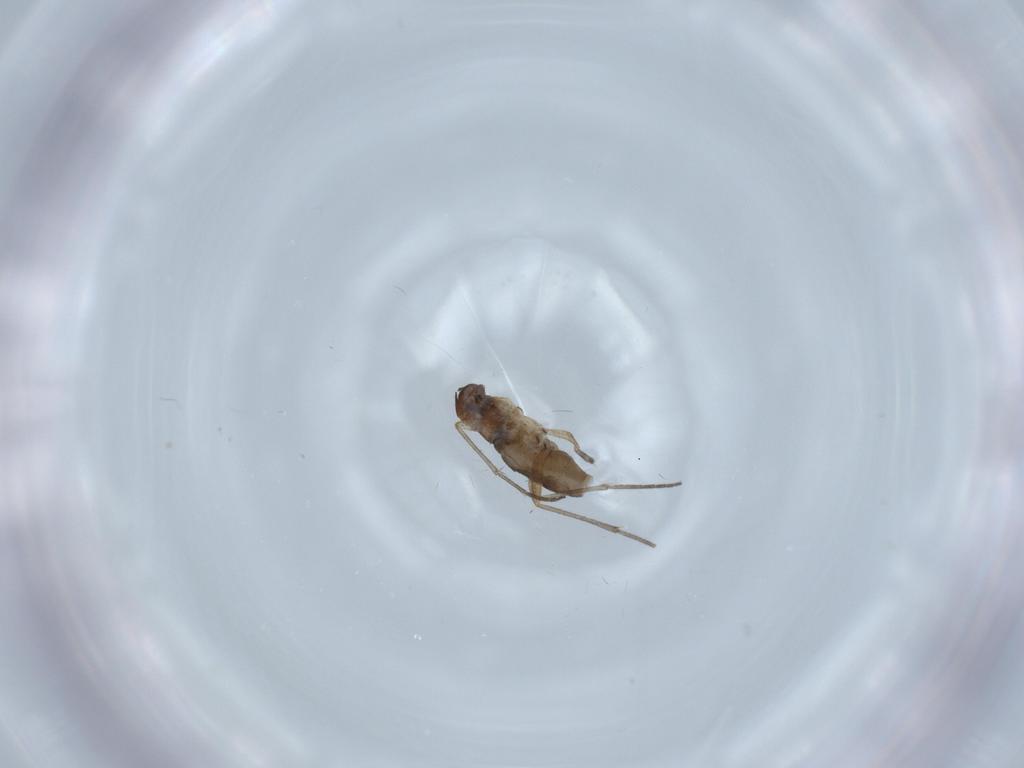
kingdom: Animalia
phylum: Arthropoda
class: Insecta
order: Diptera
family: Sciaridae
